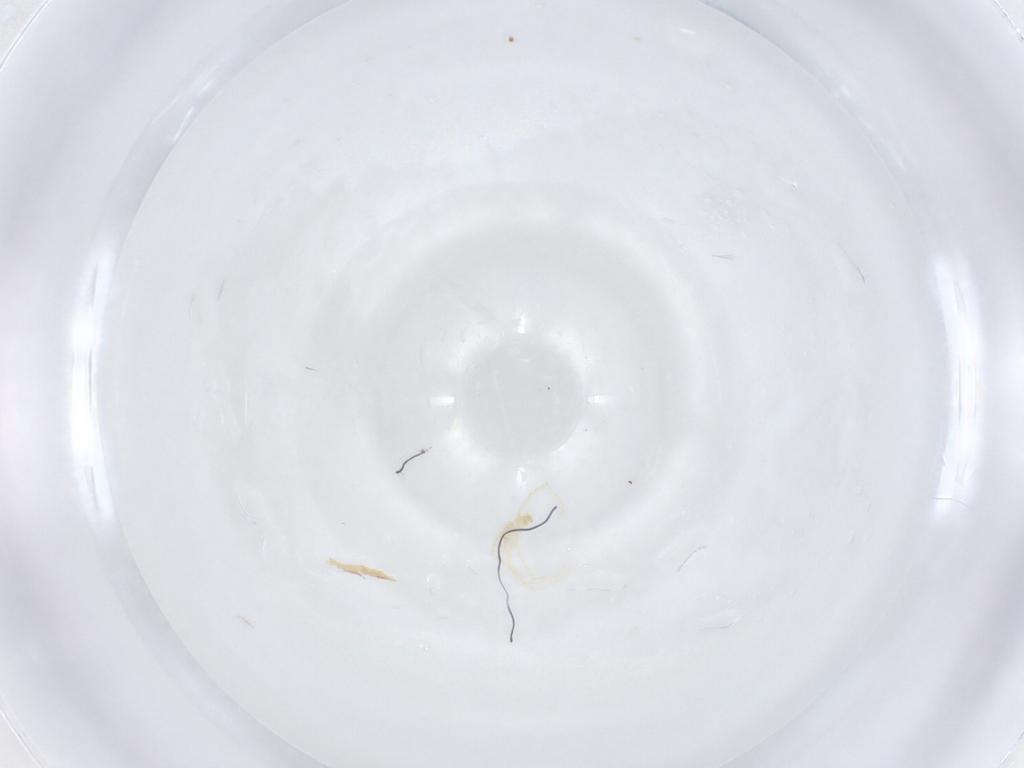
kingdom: Animalia
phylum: Arthropoda
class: Arachnida
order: Trombidiformes
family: Erythraeidae
